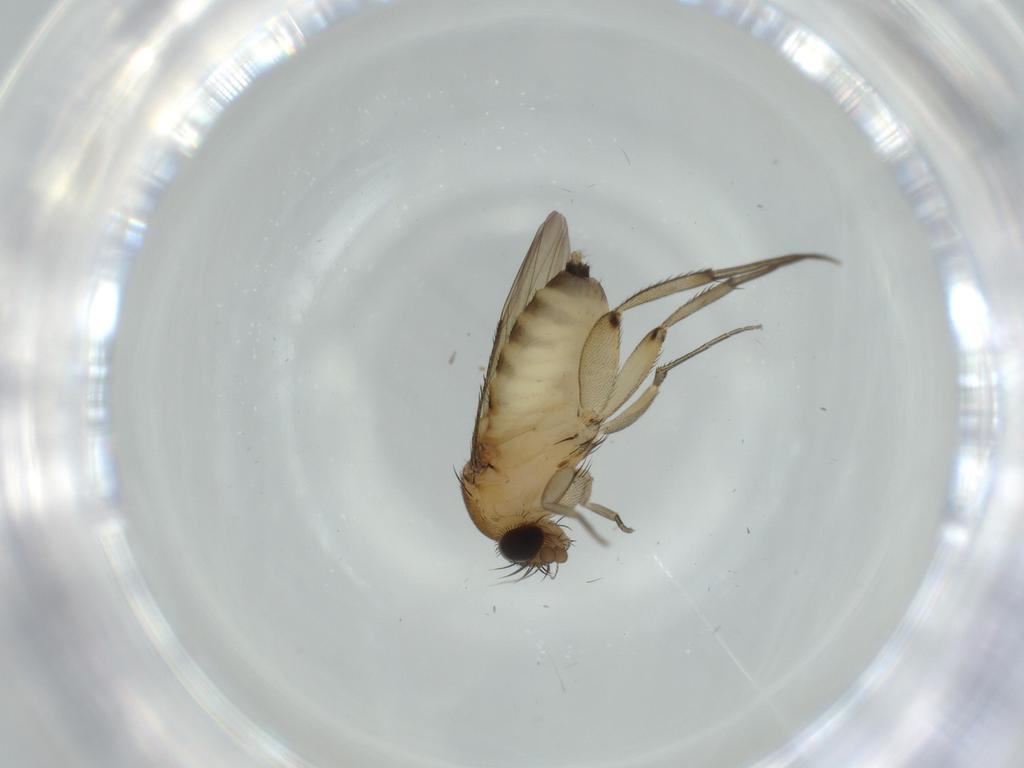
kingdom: Animalia
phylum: Arthropoda
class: Insecta
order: Diptera
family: Phoridae
